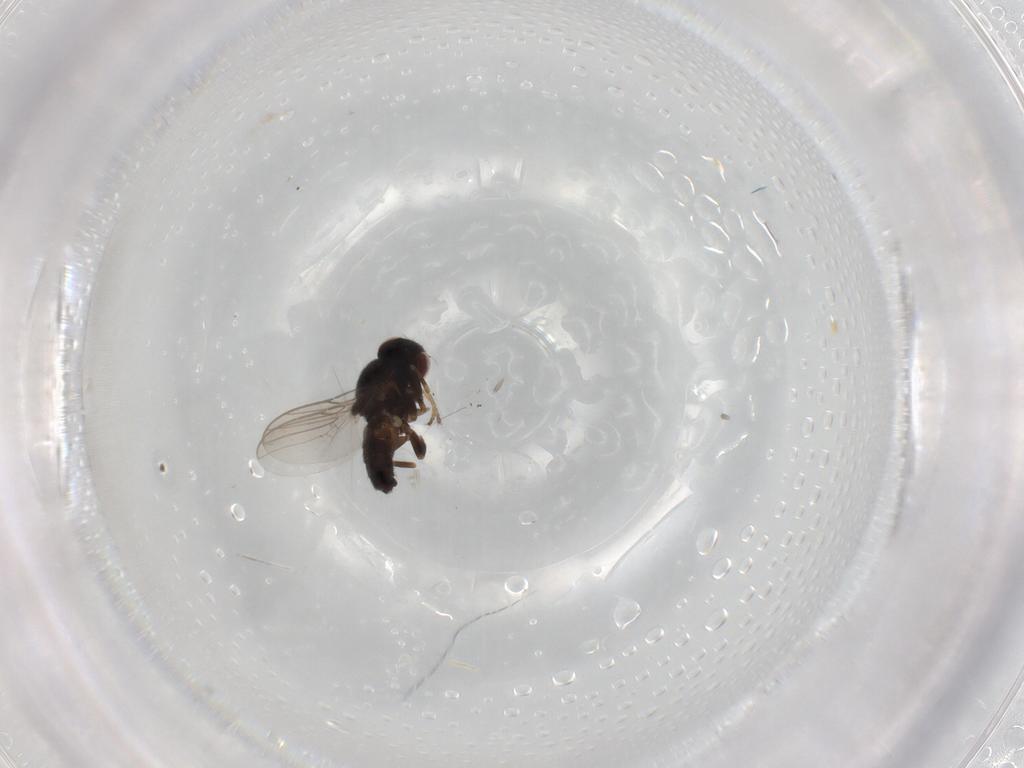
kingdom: Animalia
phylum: Arthropoda
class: Insecta
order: Diptera
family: Chloropidae
